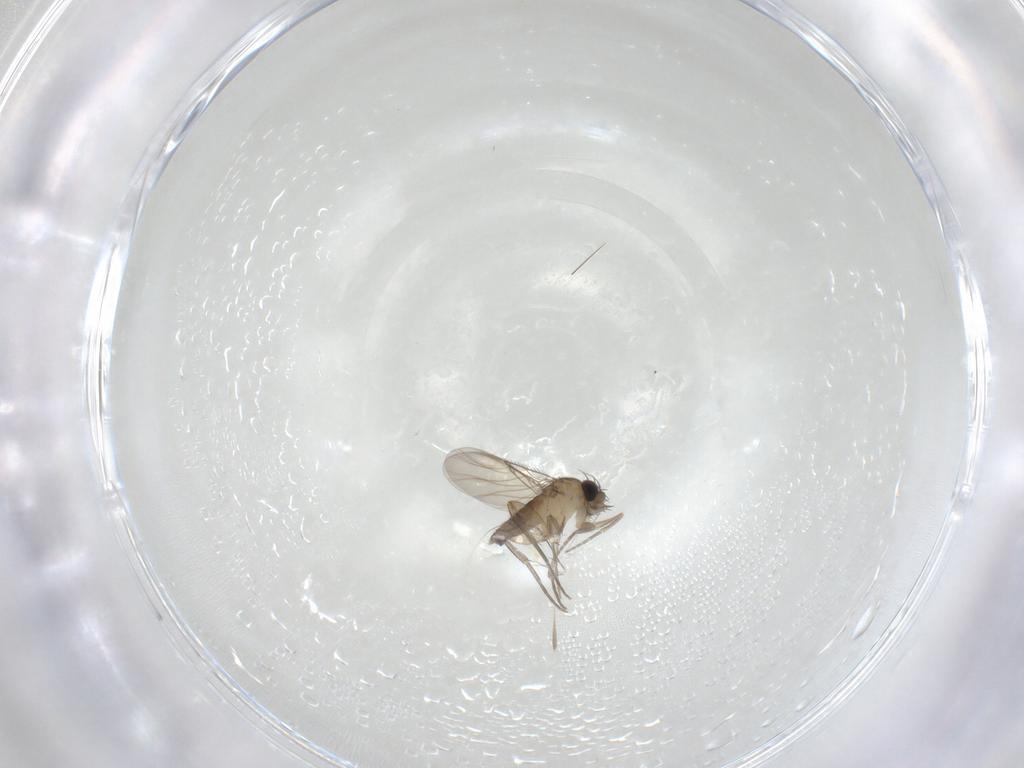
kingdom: Animalia
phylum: Arthropoda
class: Insecta
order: Diptera
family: Phoridae
